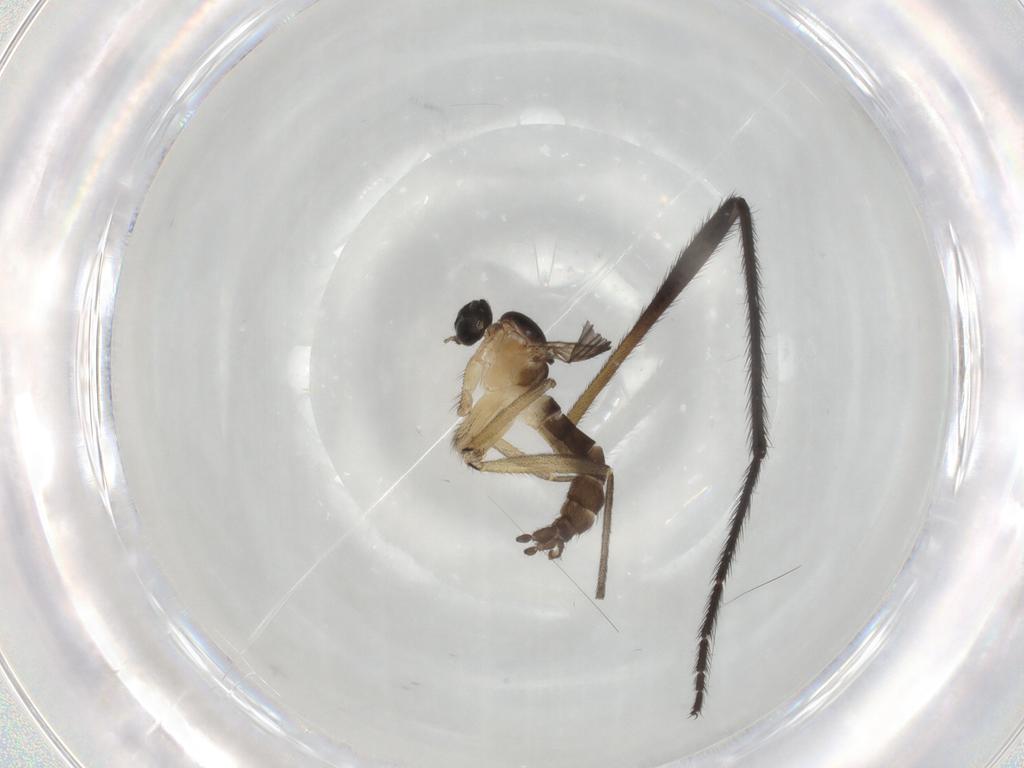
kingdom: Animalia
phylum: Arthropoda
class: Insecta
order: Diptera
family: Sciaridae
